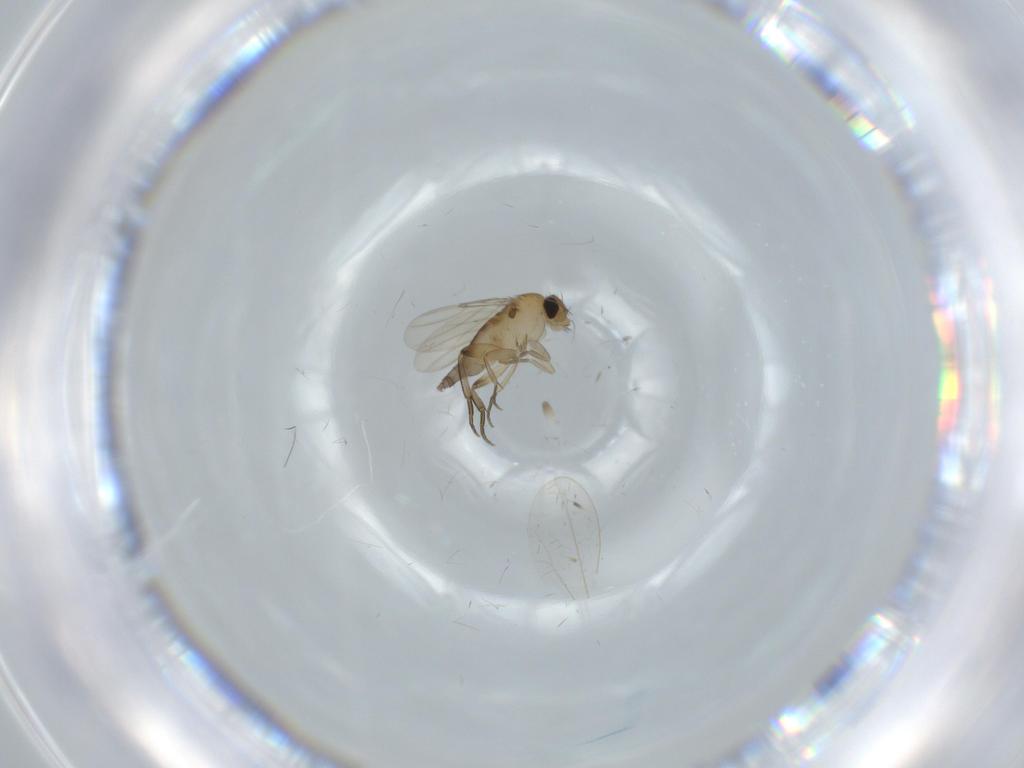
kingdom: Animalia
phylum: Arthropoda
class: Insecta
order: Diptera
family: Phoridae
